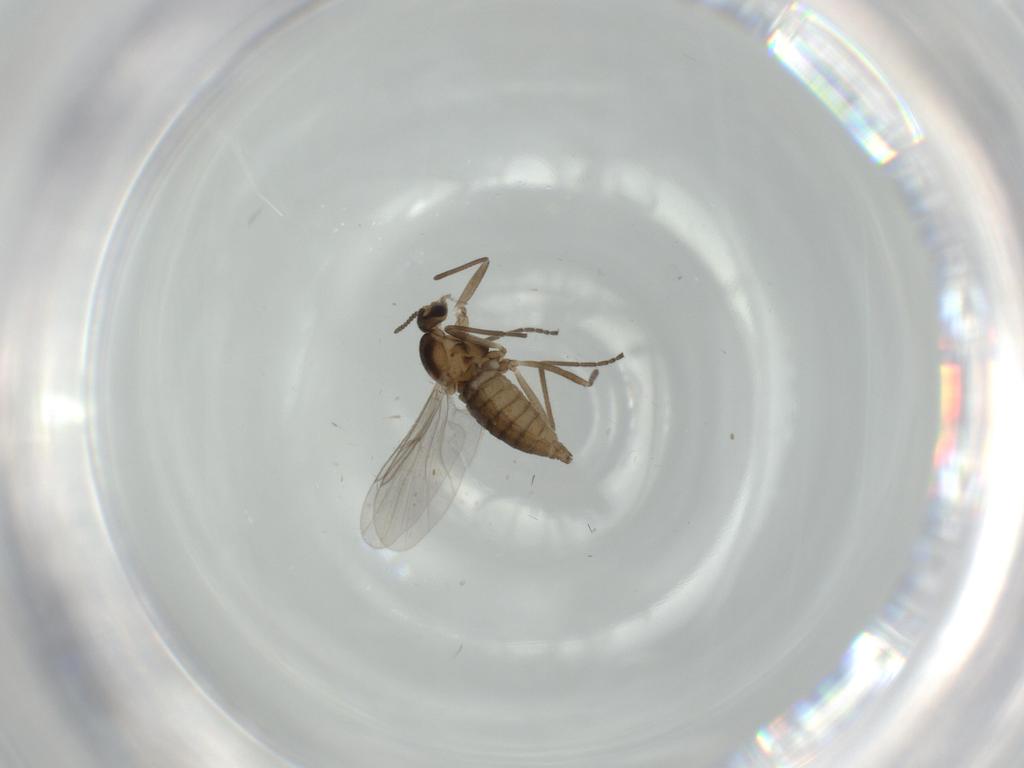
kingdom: Animalia
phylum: Arthropoda
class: Insecta
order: Diptera
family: Cecidomyiidae
